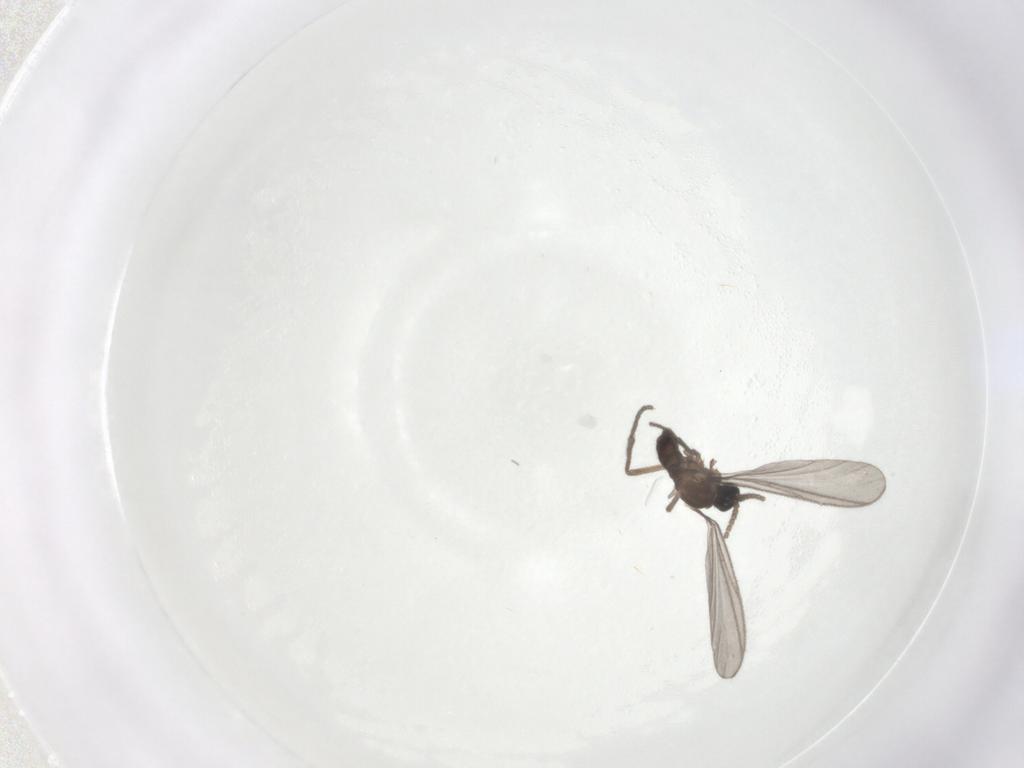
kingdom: Animalia
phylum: Arthropoda
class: Insecta
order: Diptera
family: Sciaridae
